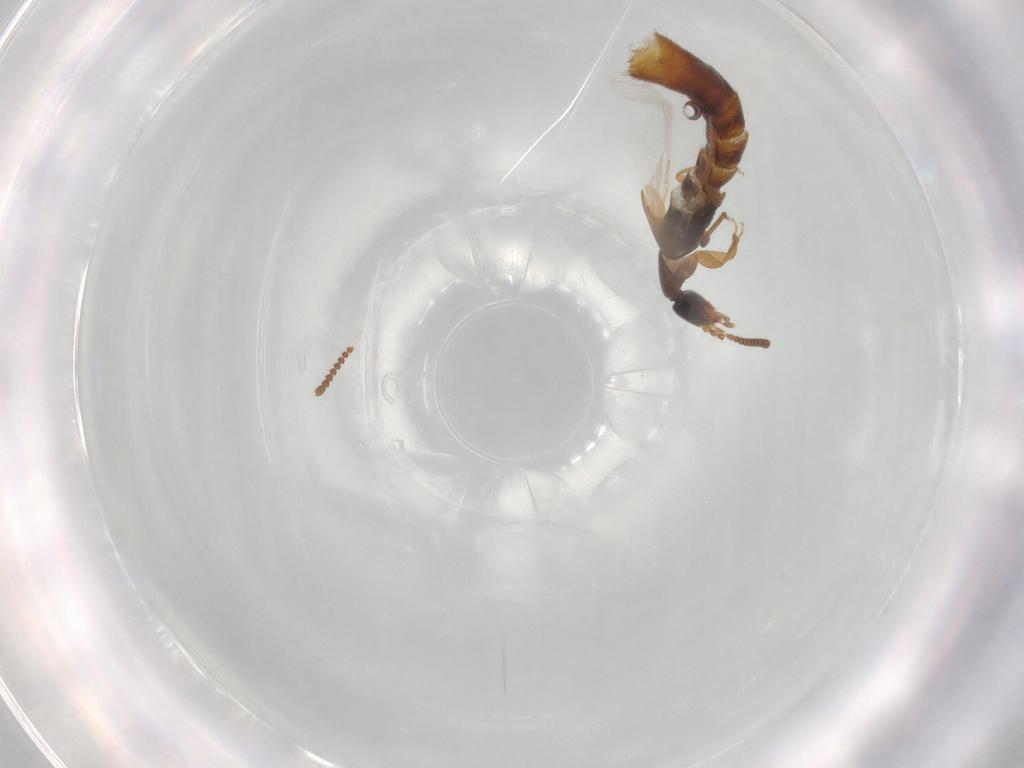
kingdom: Animalia
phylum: Arthropoda
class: Insecta
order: Coleoptera
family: Staphylinidae
